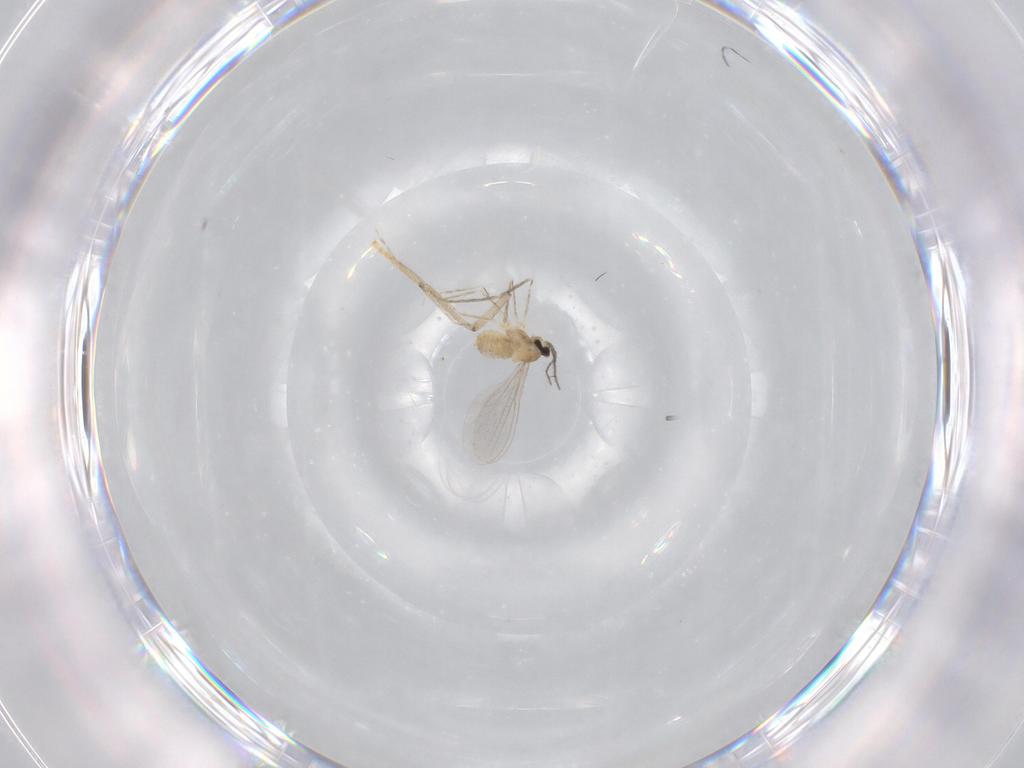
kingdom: Animalia
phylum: Arthropoda
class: Insecta
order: Diptera
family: Cecidomyiidae
